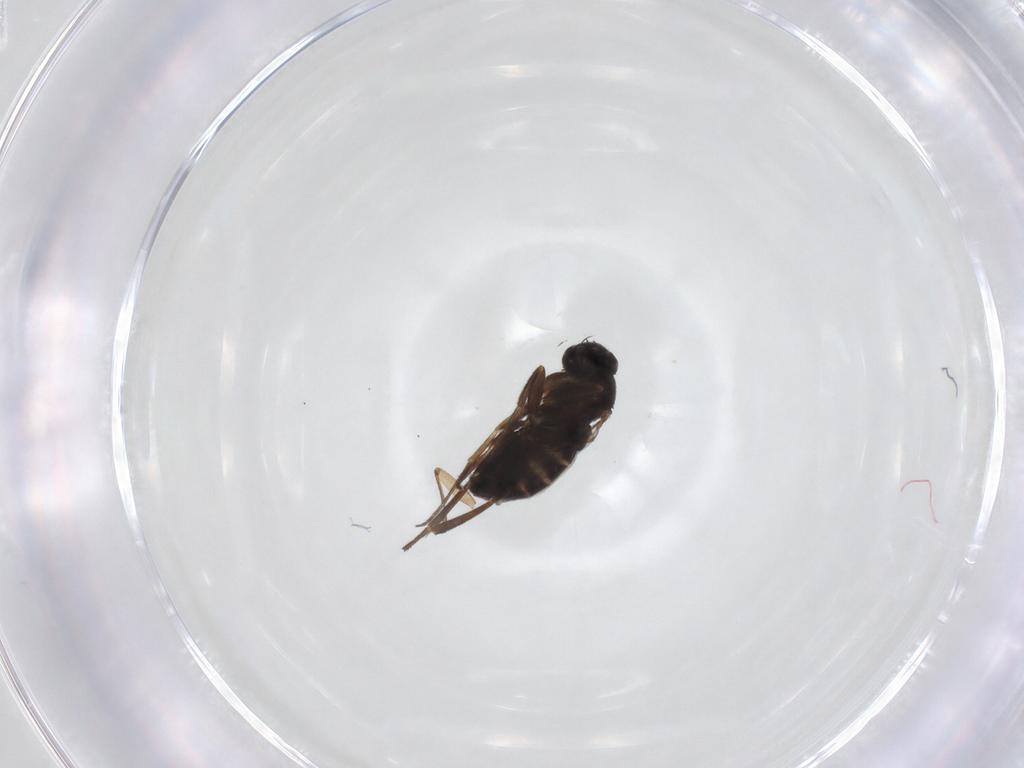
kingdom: Animalia
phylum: Arthropoda
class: Insecta
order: Diptera
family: Sciaridae
